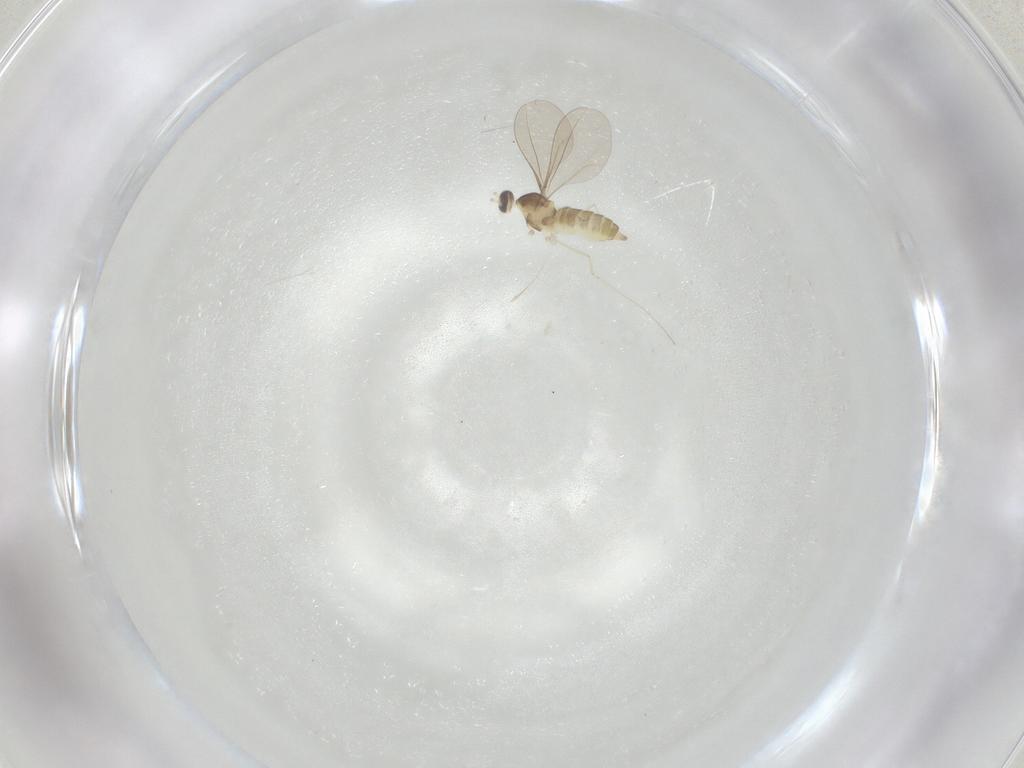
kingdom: Animalia
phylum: Arthropoda
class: Insecta
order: Diptera
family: Cecidomyiidae
